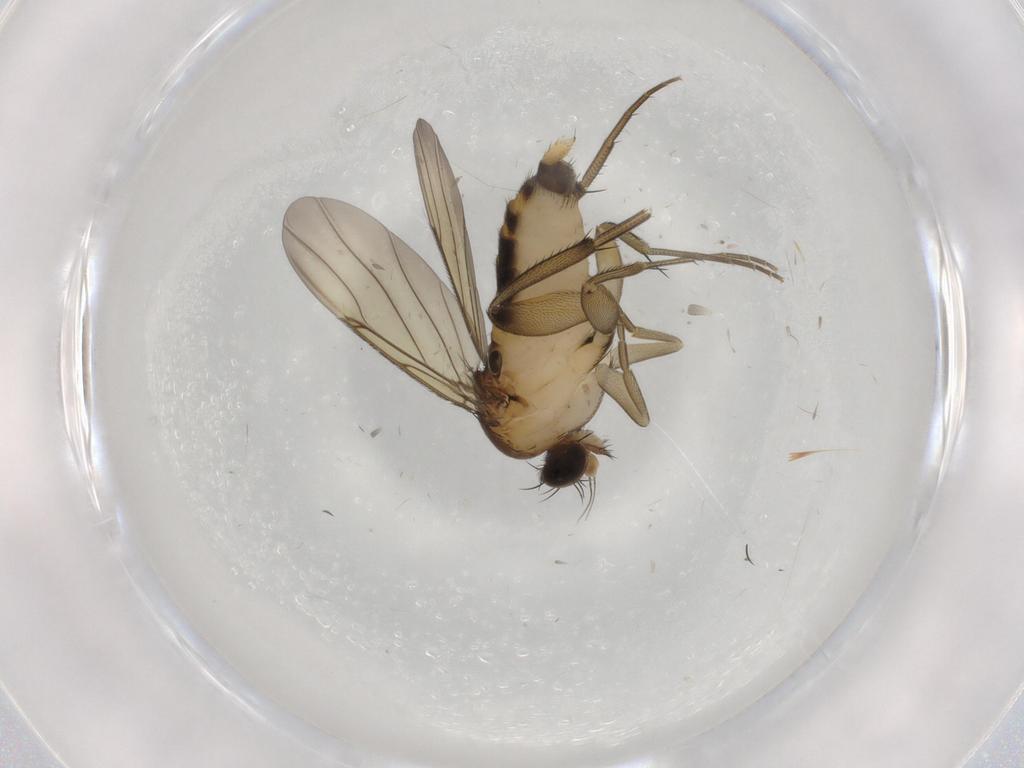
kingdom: Animalia
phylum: Arthropoda
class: Insecta
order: Diptera
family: Phoridae
